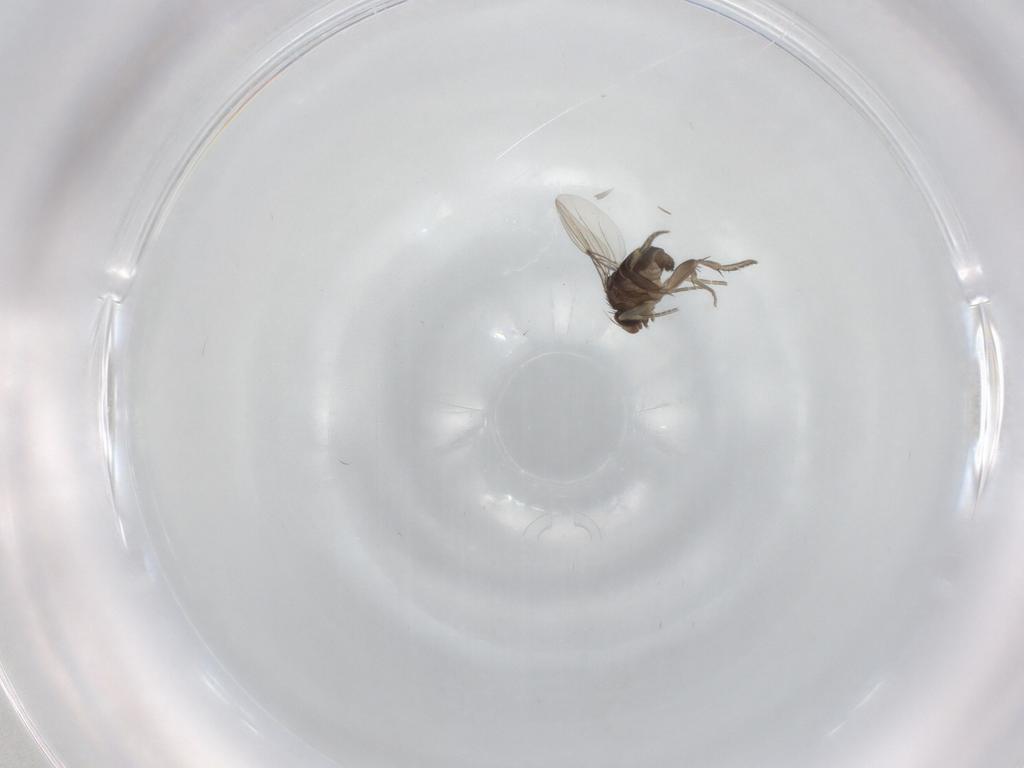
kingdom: Animalia
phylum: Arthropoda
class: Insecta
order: Diptera
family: Phoridae
